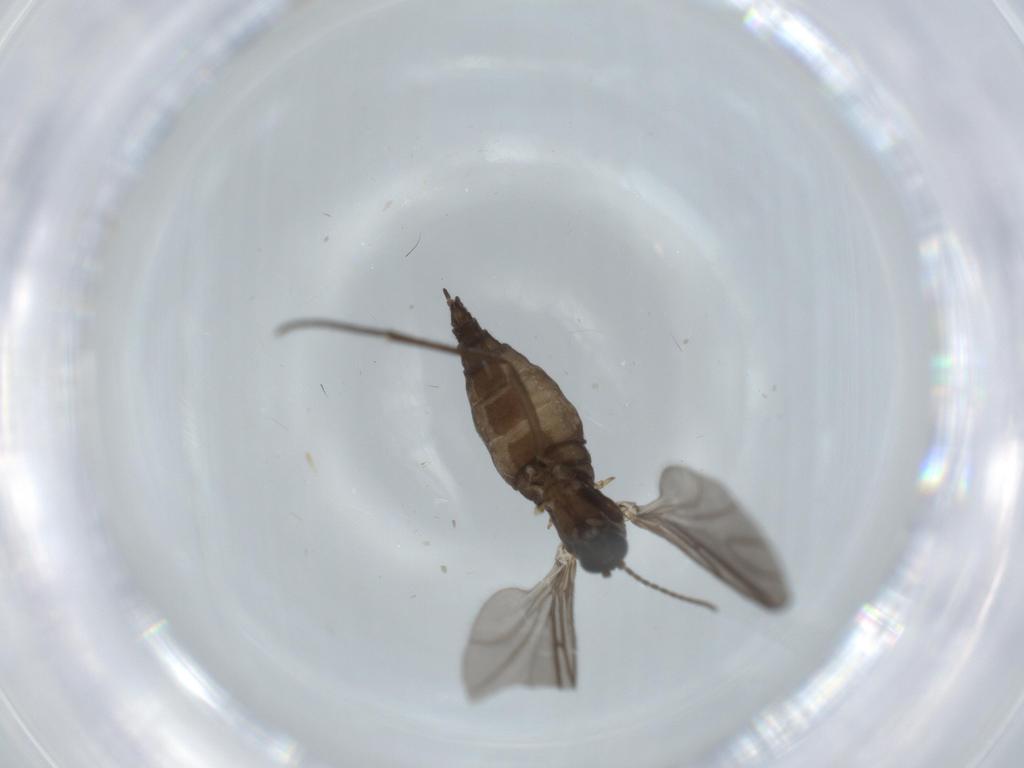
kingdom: Animalia
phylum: Arthropoda
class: Insecta
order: Diptera
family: Sciaridae
